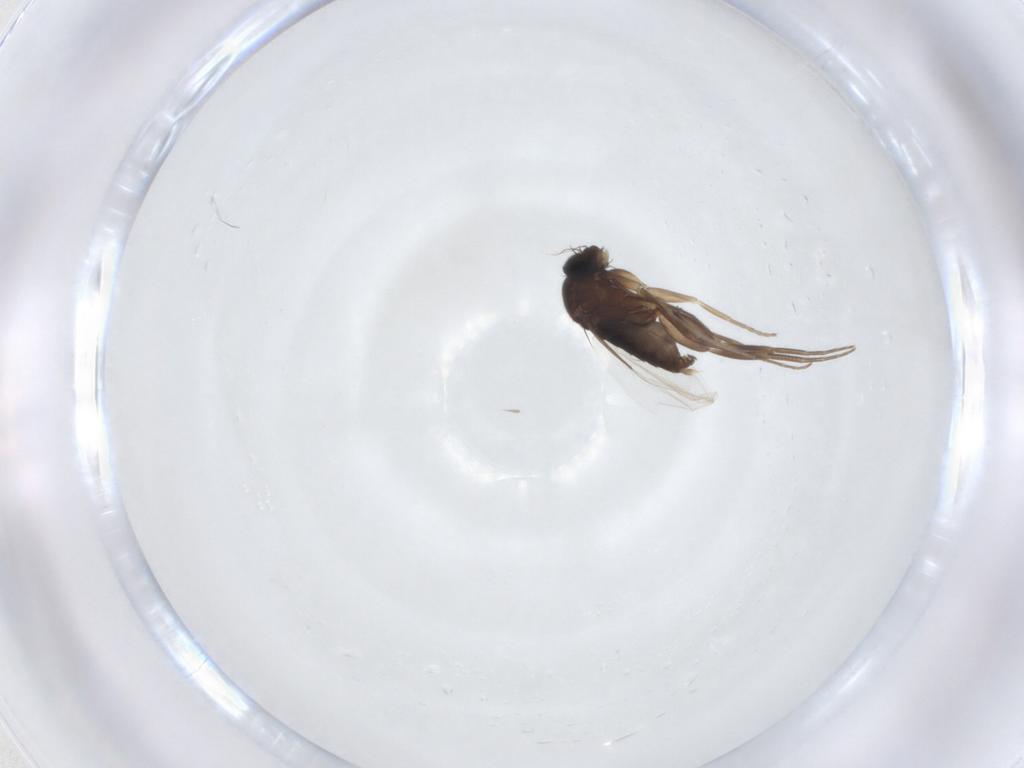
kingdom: Animalia
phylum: Arthropoda
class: Insecta
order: Diptera
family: Phoridae
